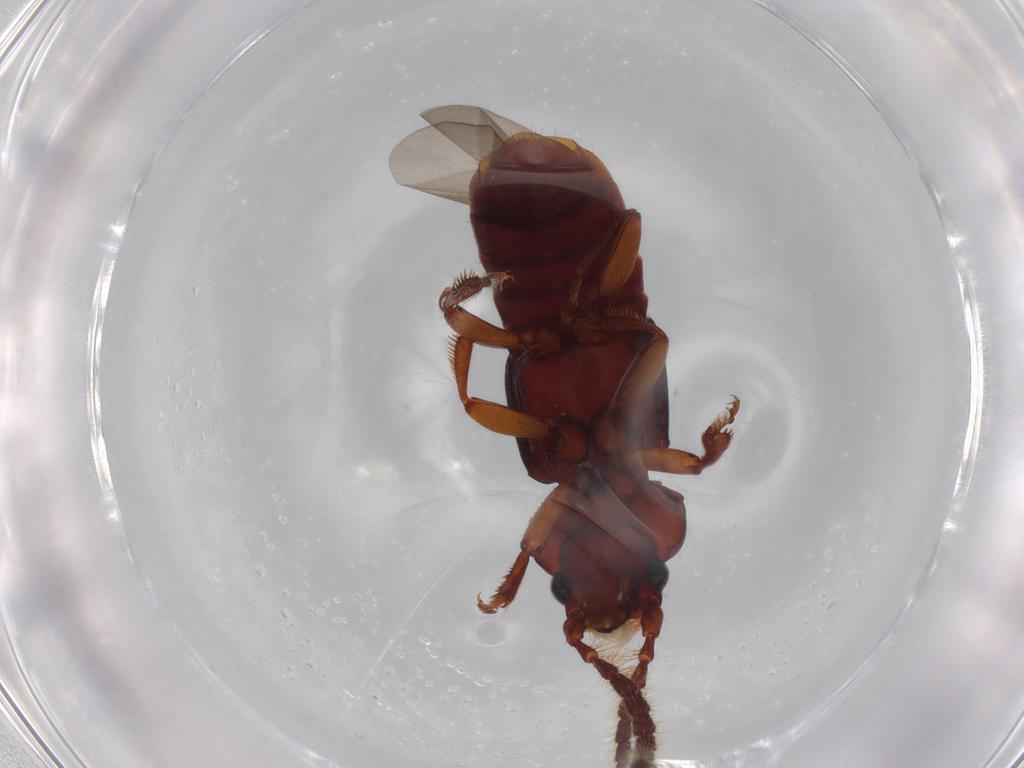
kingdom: Animalia
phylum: Arthropoda
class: Insecta
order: Coleoptera
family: Staphylinidae
